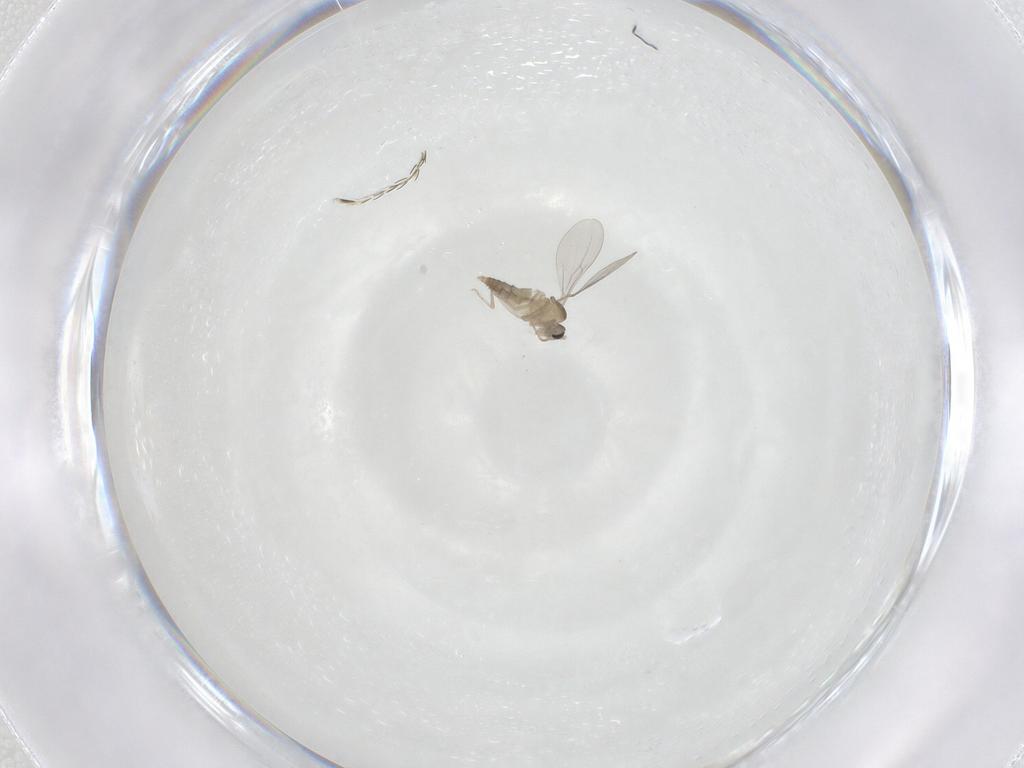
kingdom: Animalia
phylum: Arthropoda
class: Insecta
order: Diptera
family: Cecidomyiidae
